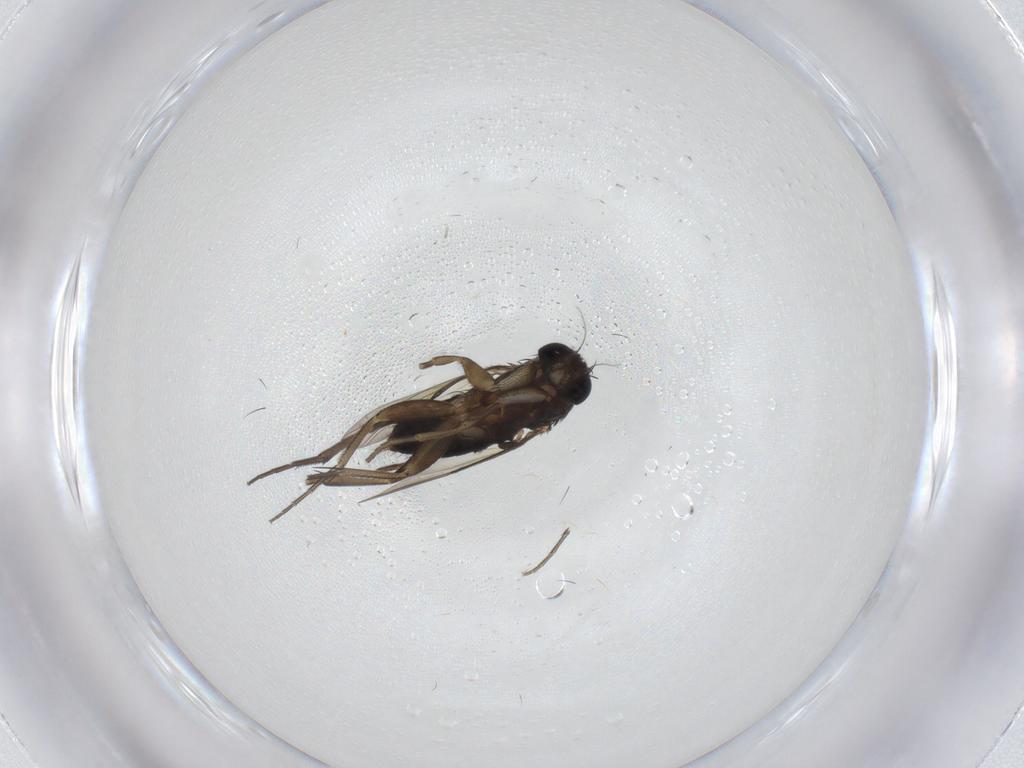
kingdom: Animalia
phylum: Arthropoda
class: Insecta
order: Diptera
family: Phoridae
